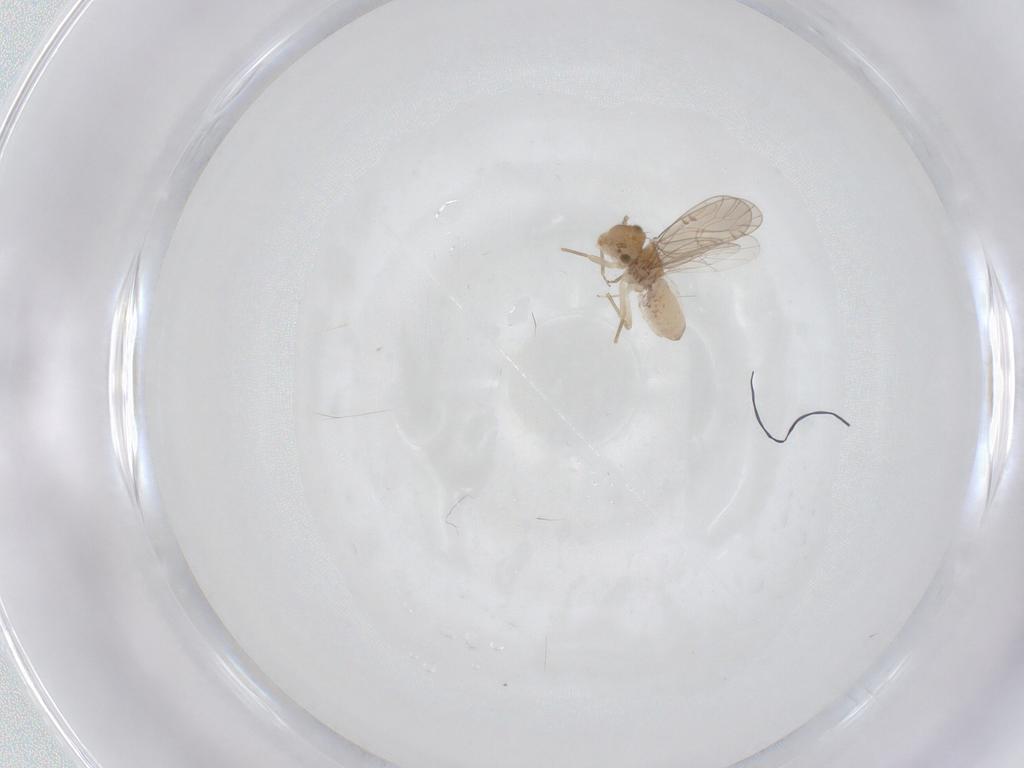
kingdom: Animalia
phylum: Arthropoda
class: Insecta
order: Psocodea
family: Ectopsocidae
